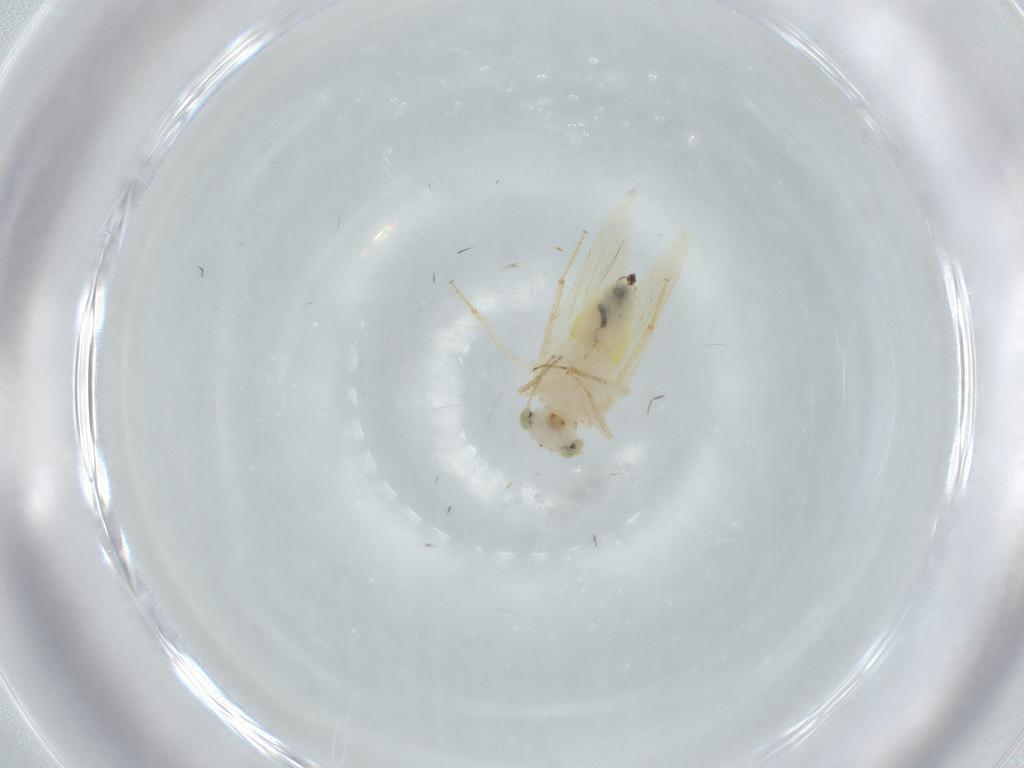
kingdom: Animalia
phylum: Arthropoda
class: Insecta
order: Psocodea
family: Lepidopsocidae
